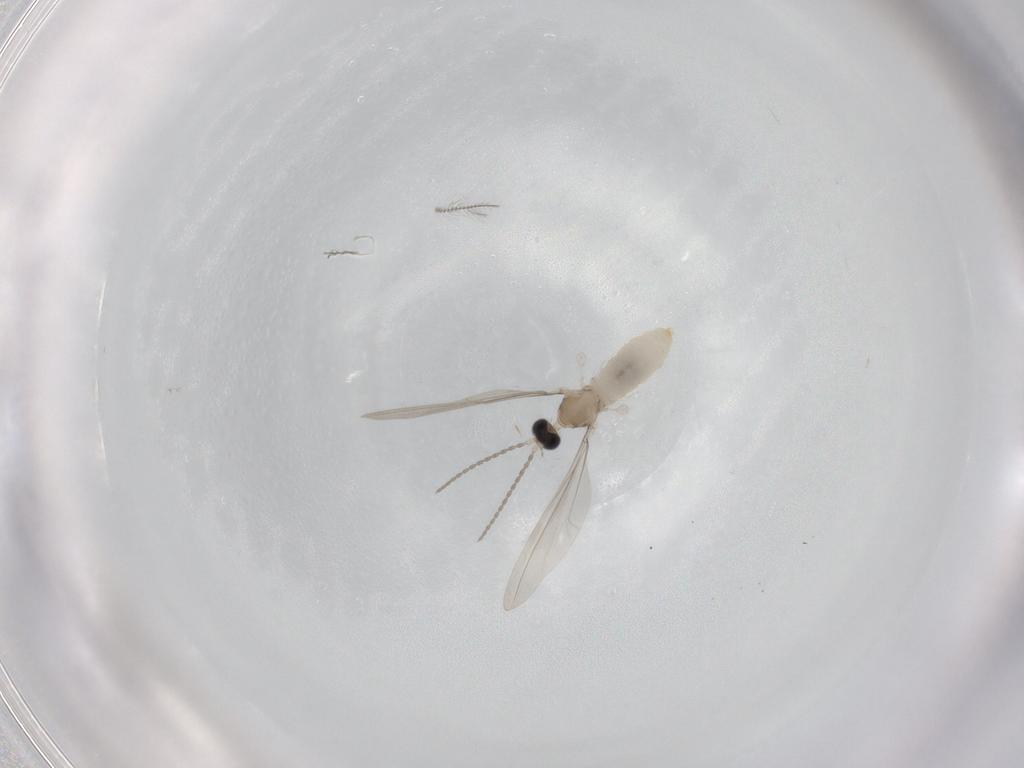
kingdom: Animalia
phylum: Arthropoda
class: Insecta
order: Diptera
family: Cecidomyiidae
